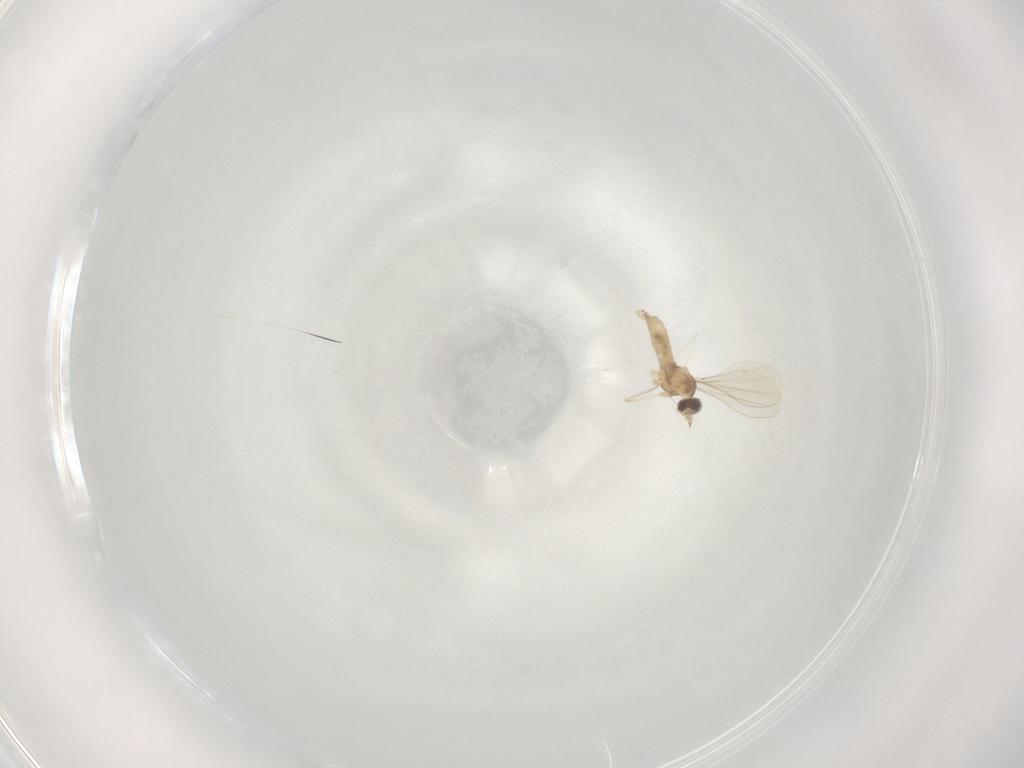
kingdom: Animalia
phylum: Arthropoda
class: Insecta
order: Diptera
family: Cecidomyiidae
